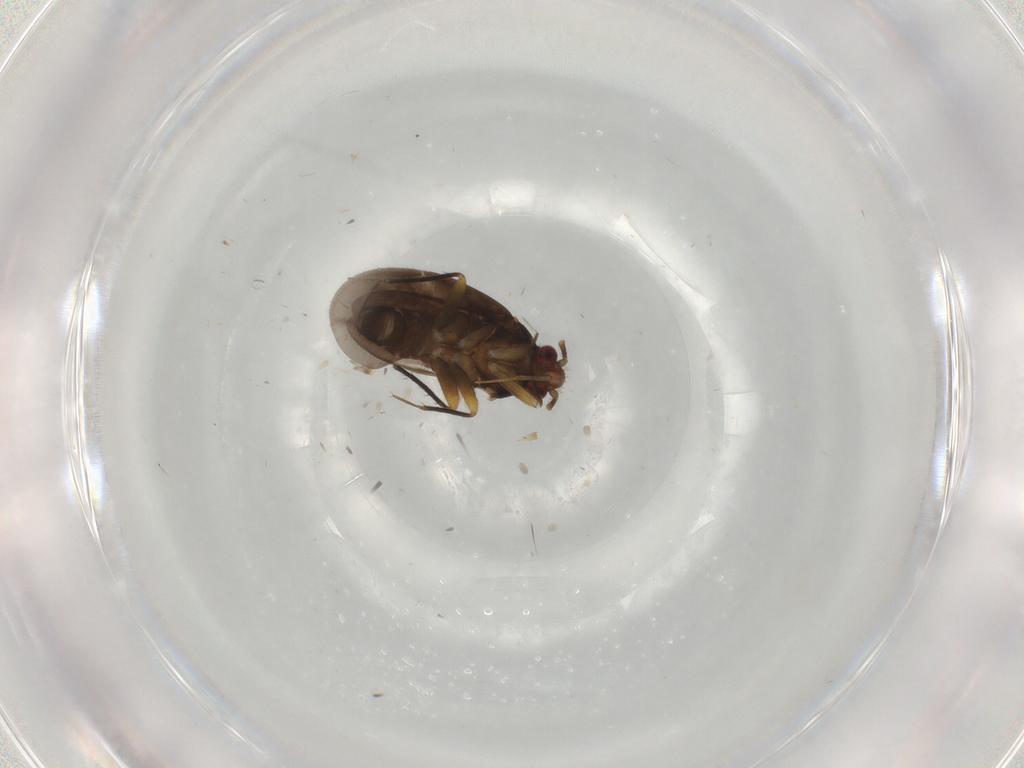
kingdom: Animalia
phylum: Arthropoda
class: Insecta
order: Hemiptera
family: Ceratocombidae
